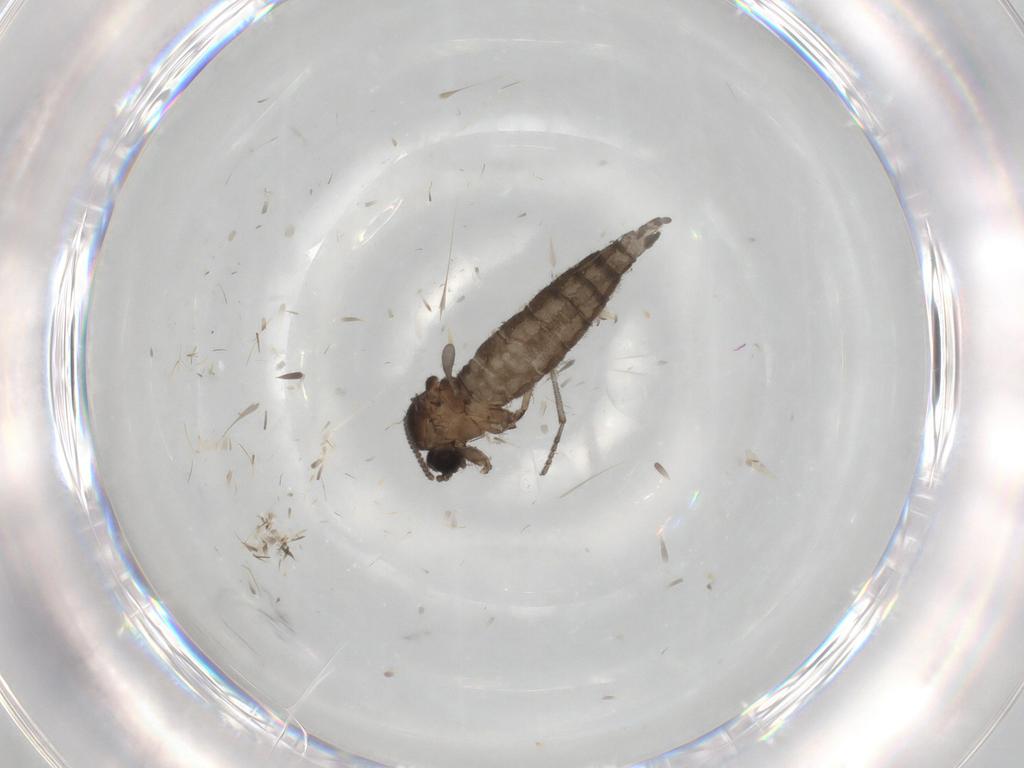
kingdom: Animalia
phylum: Arthropoda
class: Insecta
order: Diptera
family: Sciaridae
